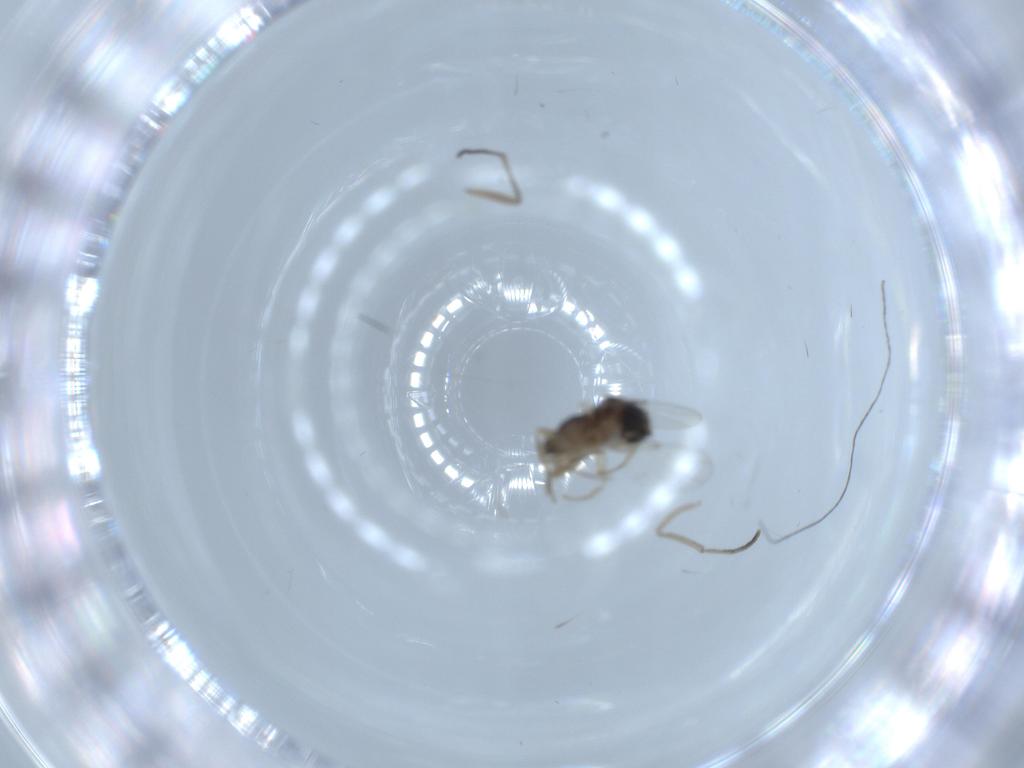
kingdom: Animalia
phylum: Arthropoda
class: Insecta
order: Diptera
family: Psychodidae
